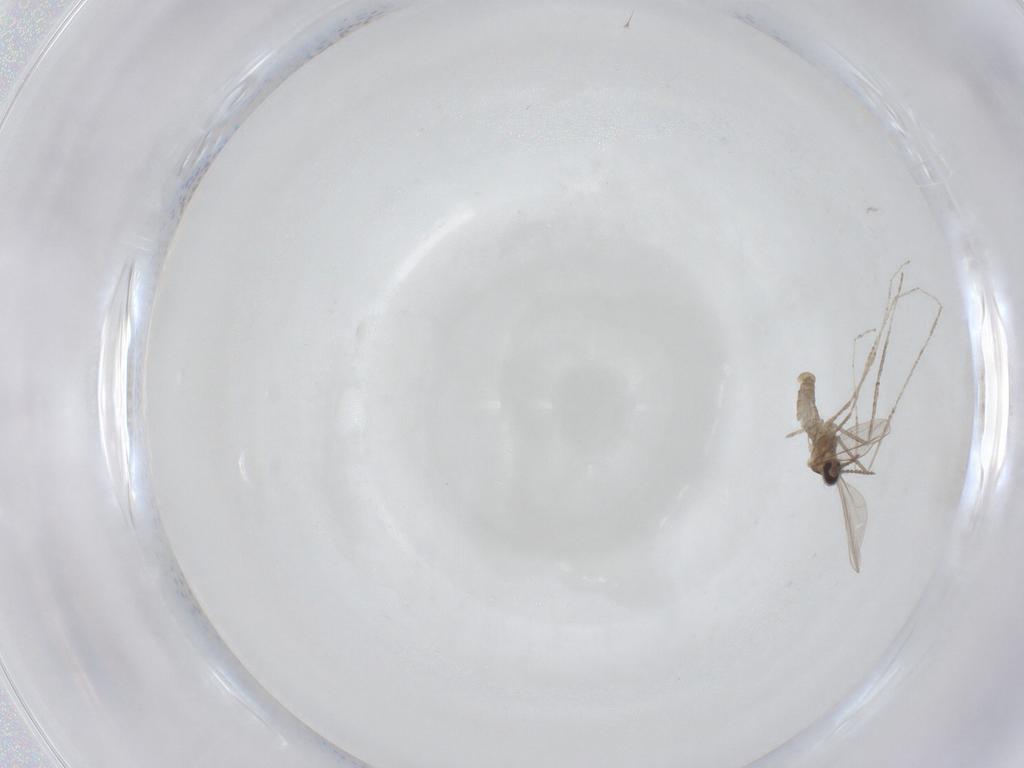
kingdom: Animalia
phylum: Arthropoda
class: Insecta
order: Diptera
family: Cecidomyiidae
